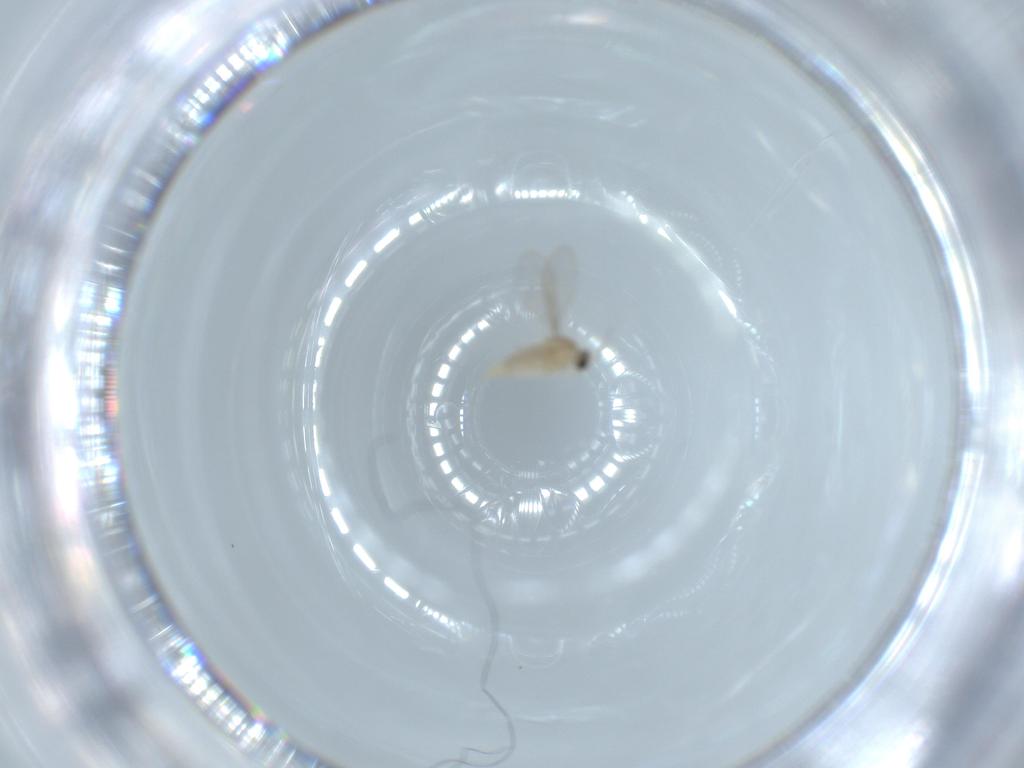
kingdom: Animalia
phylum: Arthropoda
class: Insecta
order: Diptera
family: Cecidomyiidae
